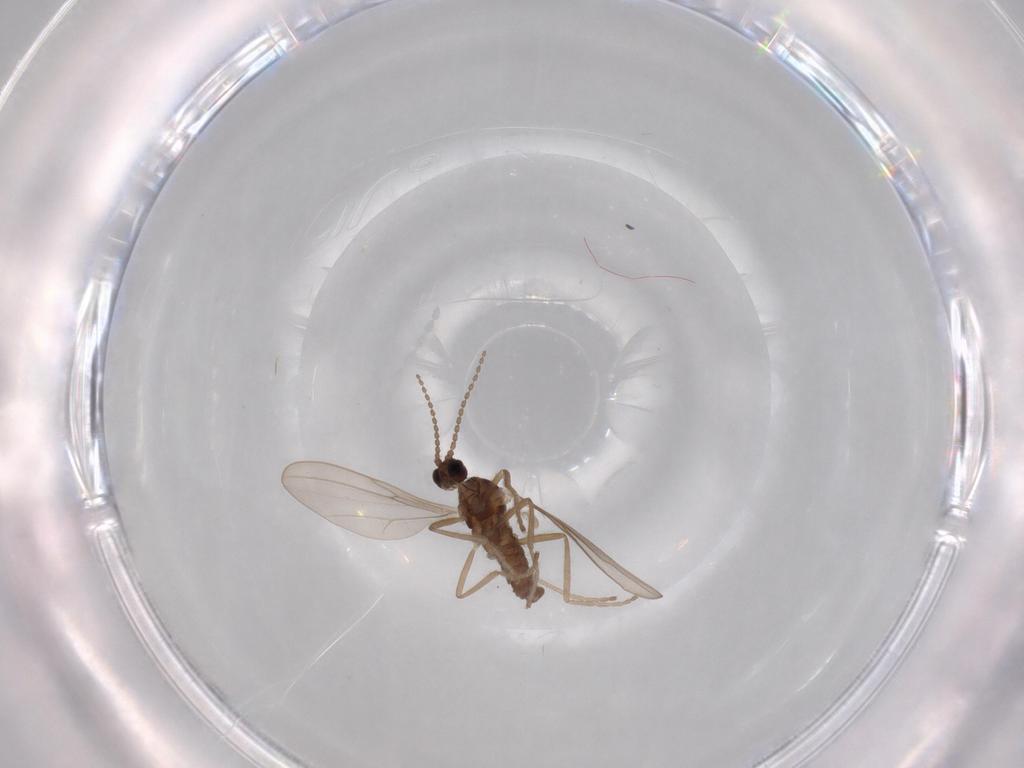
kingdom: Animalia
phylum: Arthropoda
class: Insecta
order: Diptera
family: Cecidomyiidae
